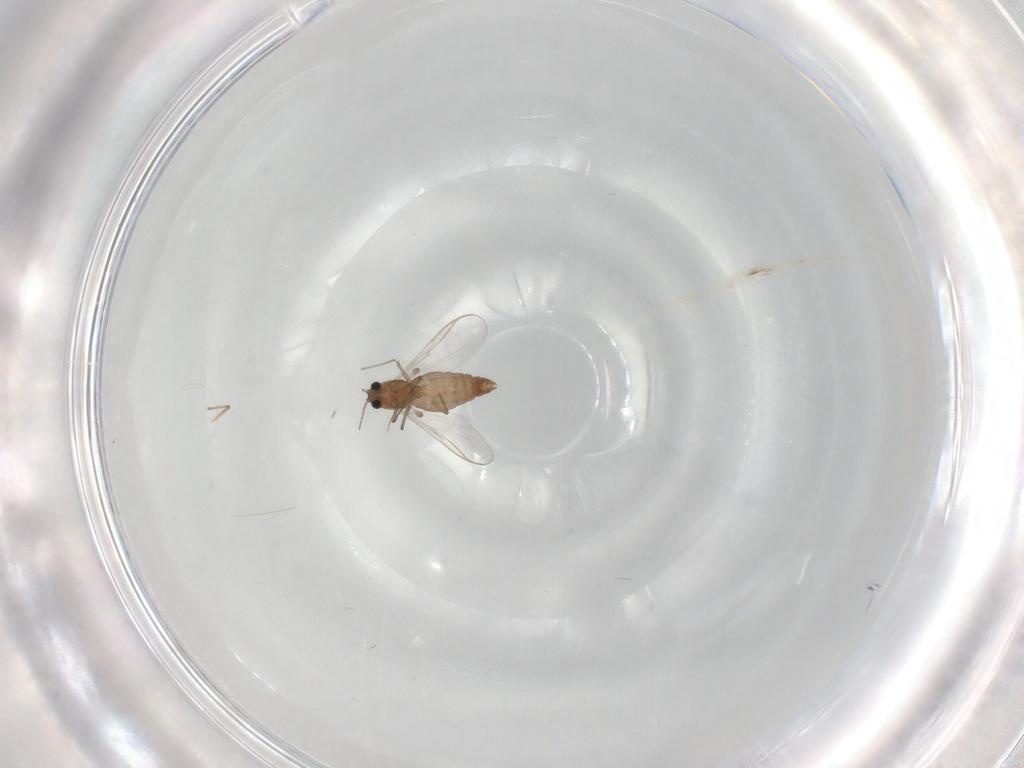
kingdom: Animalia
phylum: Arthropoda
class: Insecta
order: Diptera
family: Chironomidae
